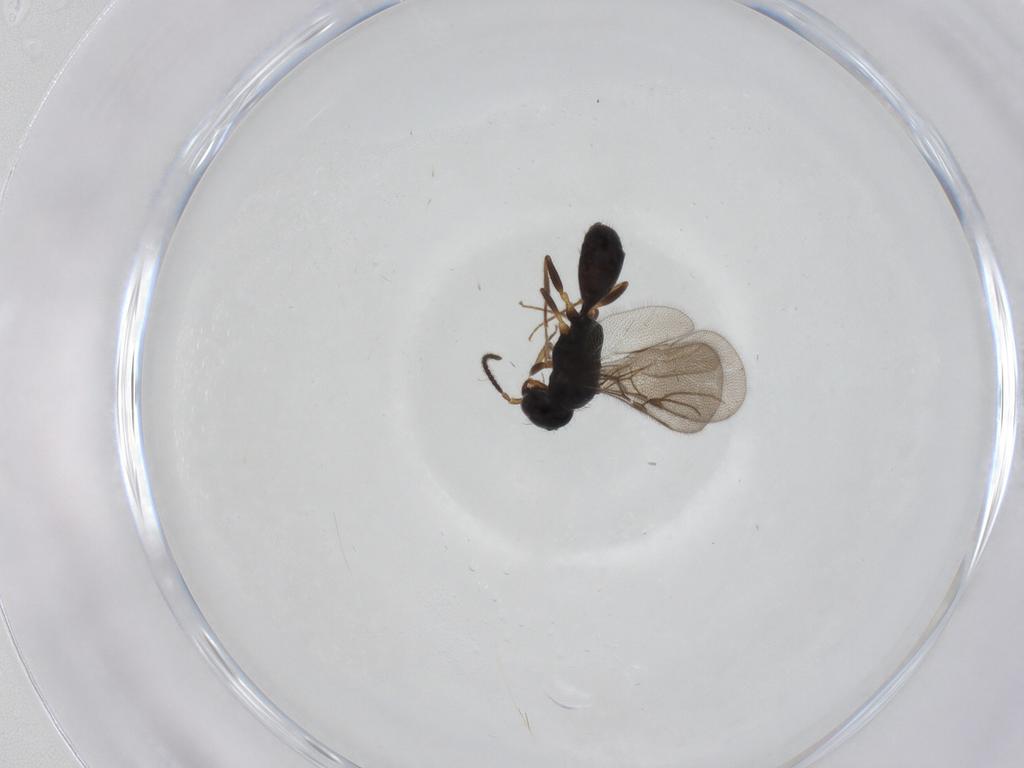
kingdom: Animalia
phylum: Arthropoda
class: Insecta
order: Hymenoptera
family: Bethylidae
